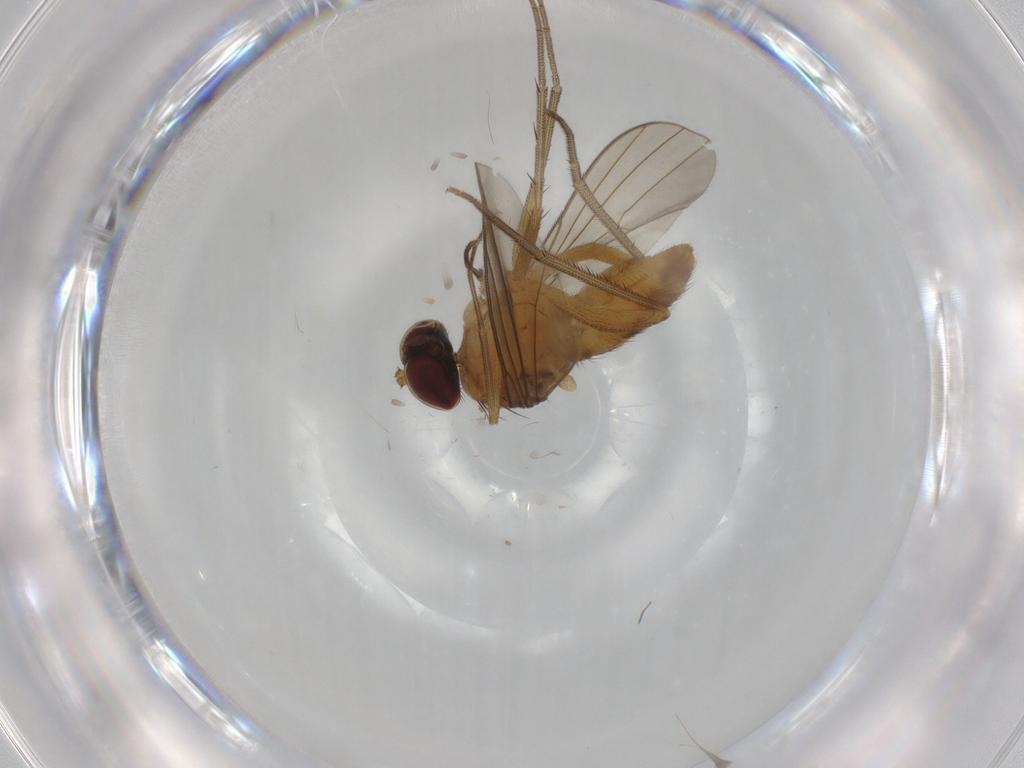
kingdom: Animalia
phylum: Arthropoda
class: Insecta
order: Diptera
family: Dolichopodidae
